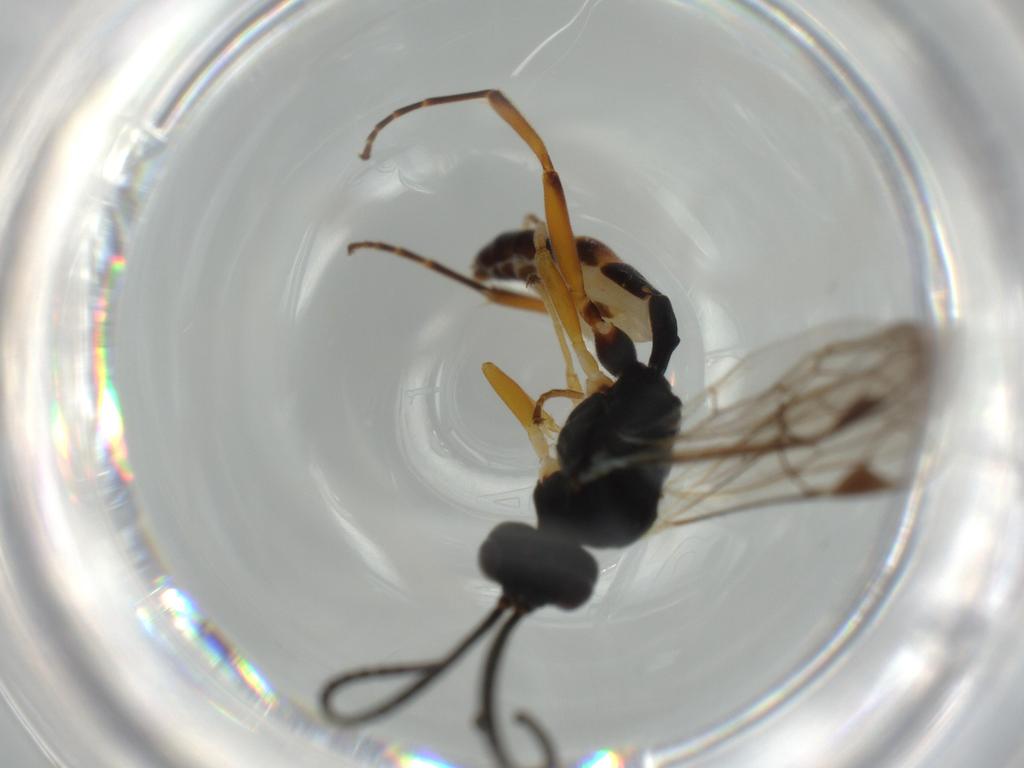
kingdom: Animalia
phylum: Arthropoda
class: Insecta
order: Hymenoptera
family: Ichneumonidae
